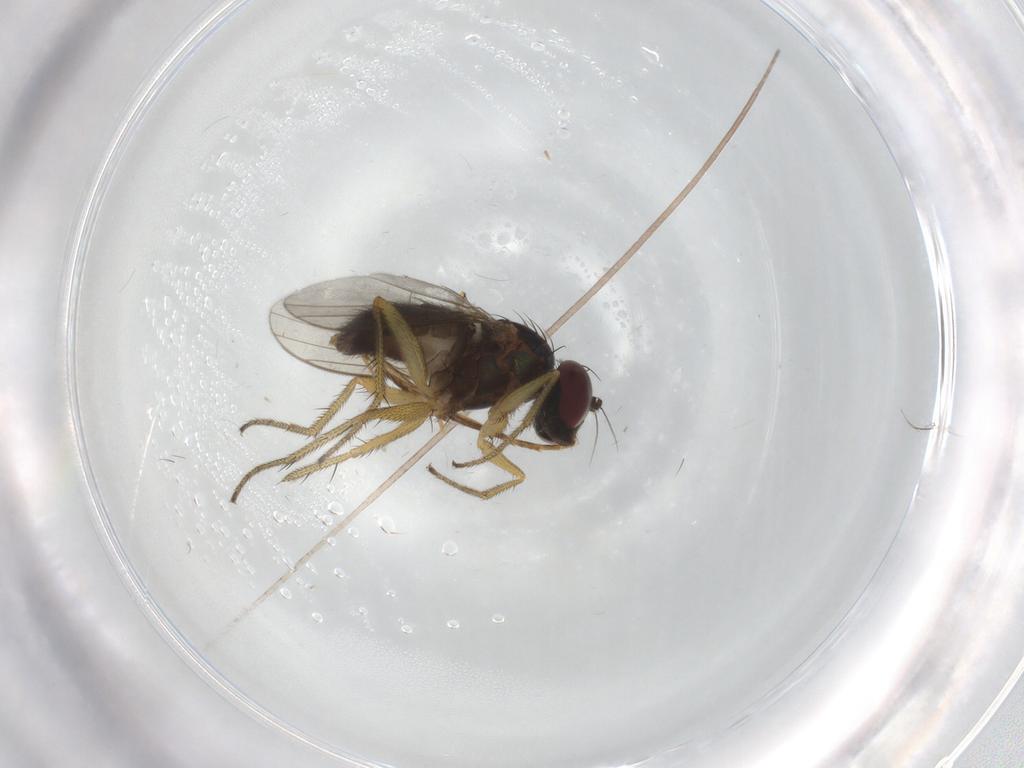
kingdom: Animalia
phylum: Arthropoda
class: Insecta
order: Diptera
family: Dolichopodidae
